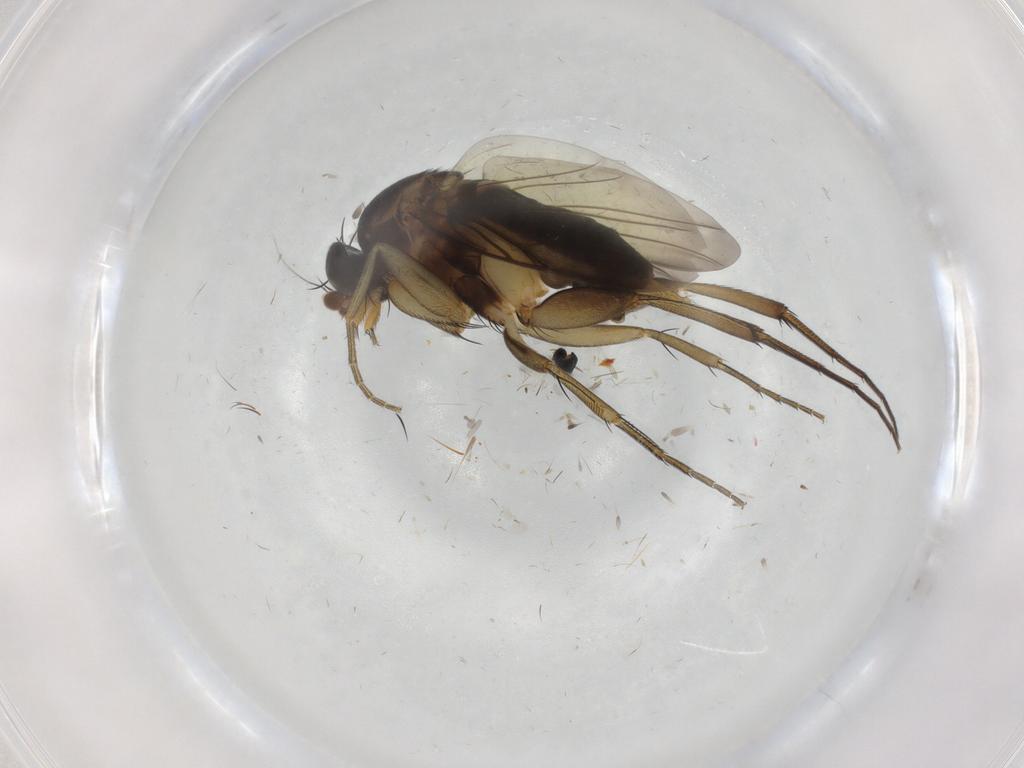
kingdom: Animalia
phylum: Arthropoda
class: Insecta
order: Diptera
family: Phoridae
